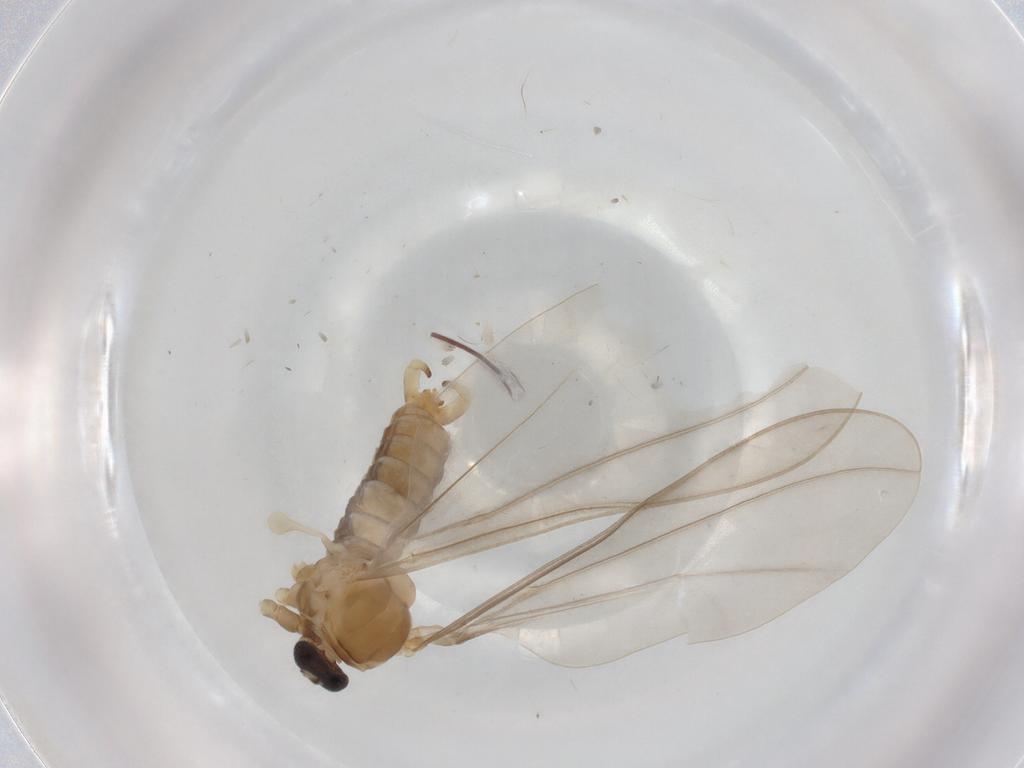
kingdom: Animalia
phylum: Arthropoda
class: Insecta
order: Diptera
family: Cecidomyiidae
